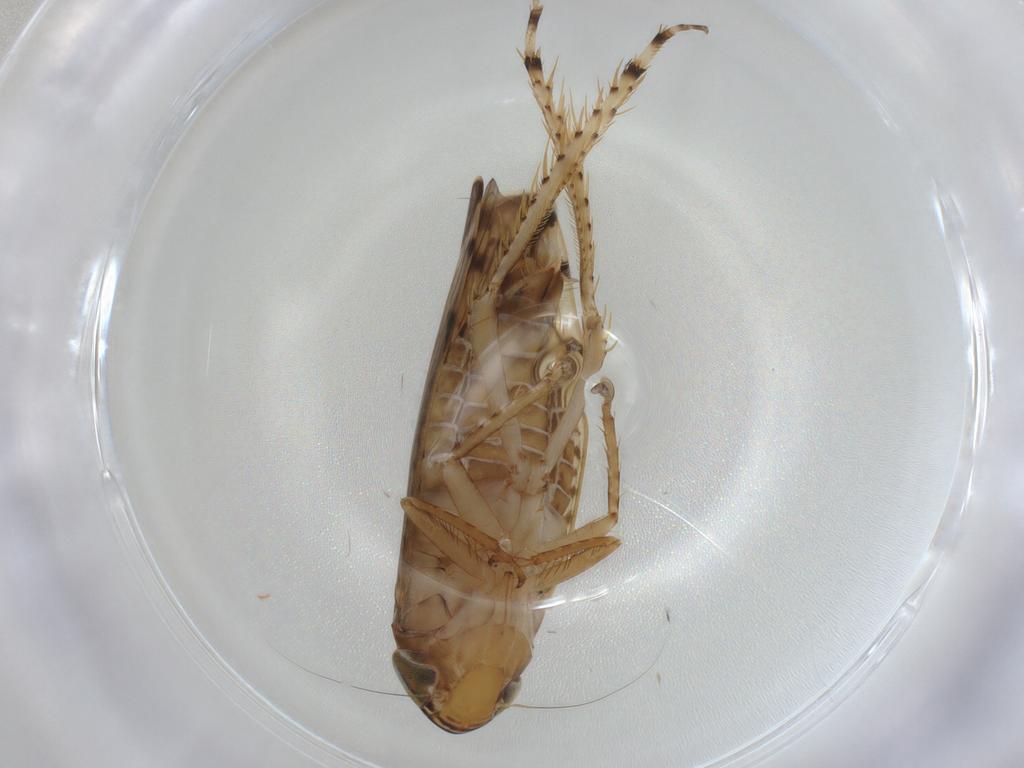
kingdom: Animalia
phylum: Arthropoda
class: Insecta
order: Hemiptera
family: Cicadellidae
